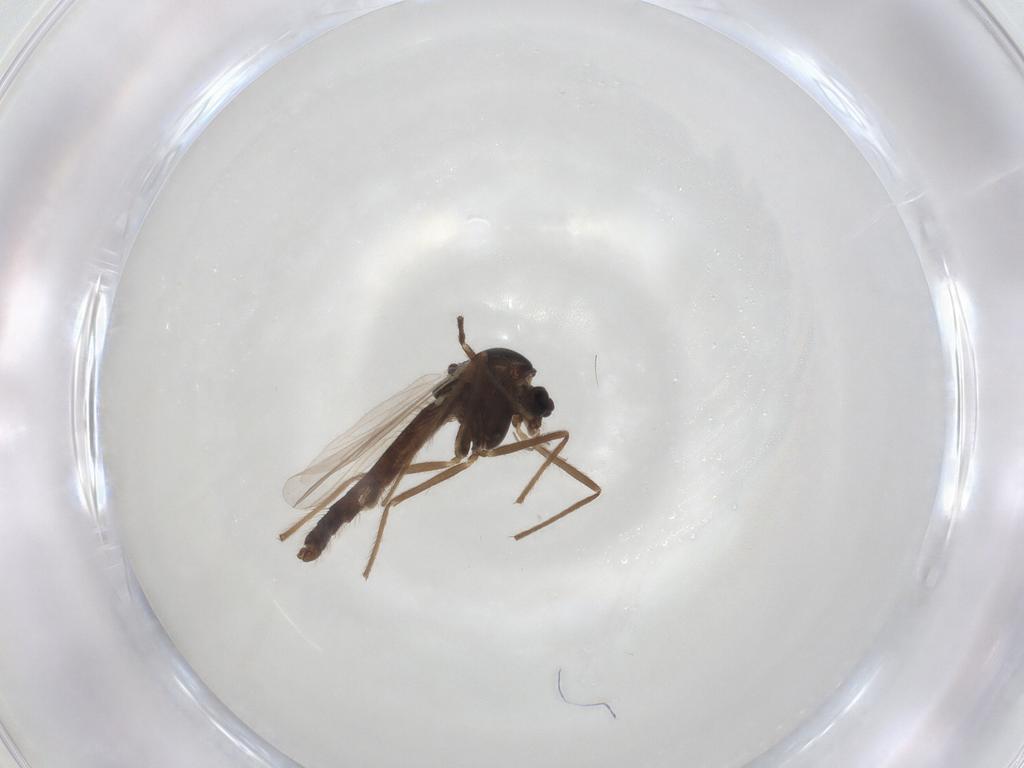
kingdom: Animalia
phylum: Arthropoda
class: Insecta
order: Diptera
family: Chironomidae
